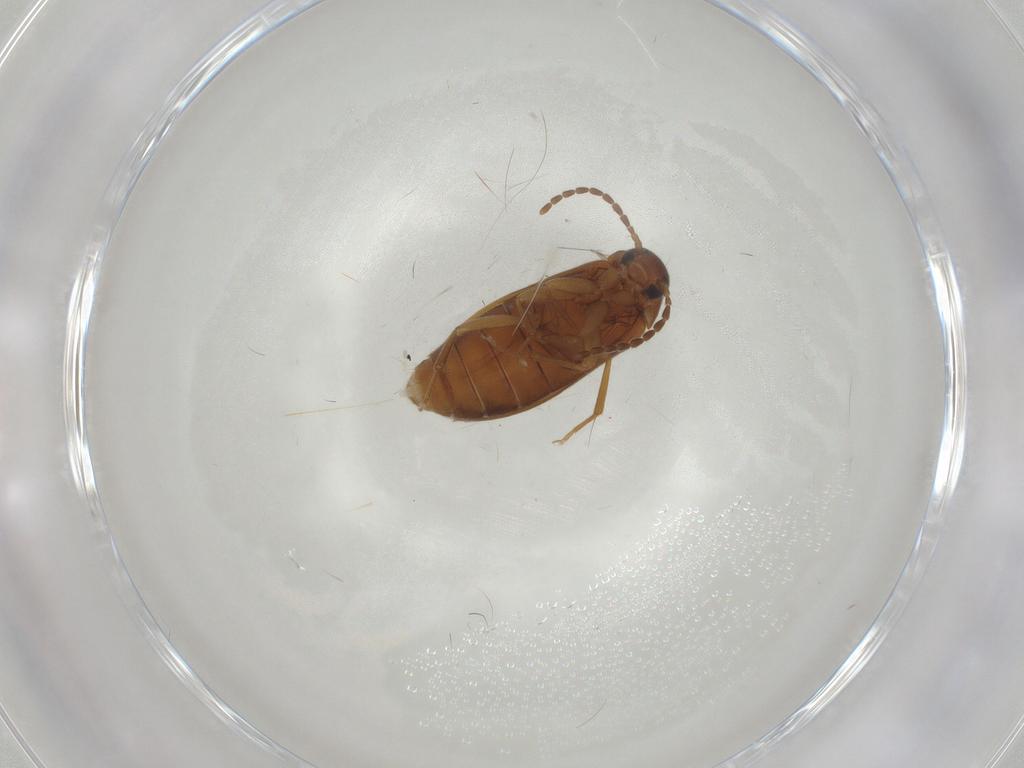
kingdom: Animalia
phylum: Arthropoda
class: Insecta
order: Coleoptera
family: Scraptiidae
